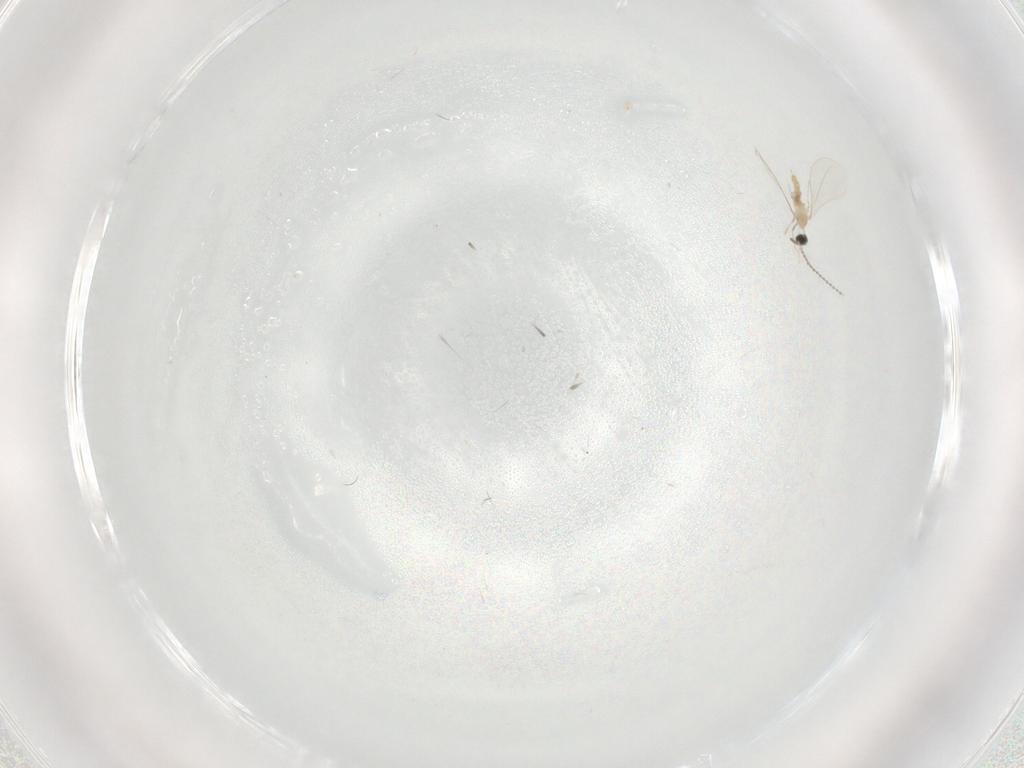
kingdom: Animalia
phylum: Arthropoda
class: Insecta
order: Diptera
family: Cecidomyiidae
